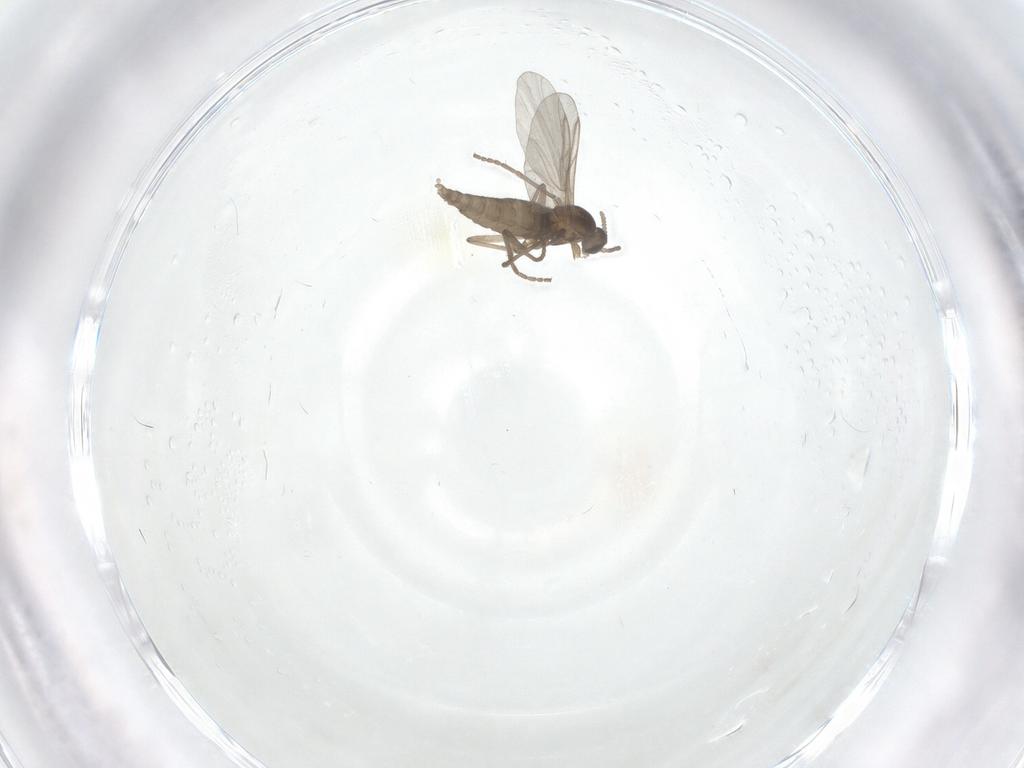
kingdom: Animalia
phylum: Arthropoda
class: Insecta
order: Diptera
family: Cecidomyiidae
